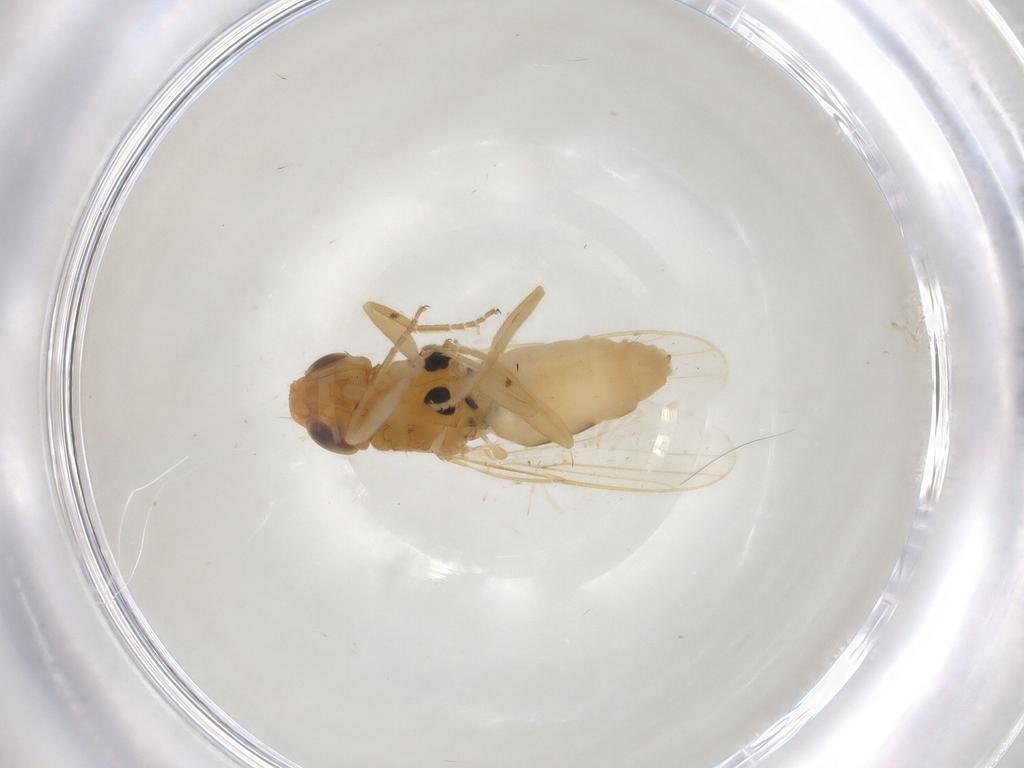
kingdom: Animalia
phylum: Arthropoda
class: Insecta
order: Diptera
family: Chloropidae
